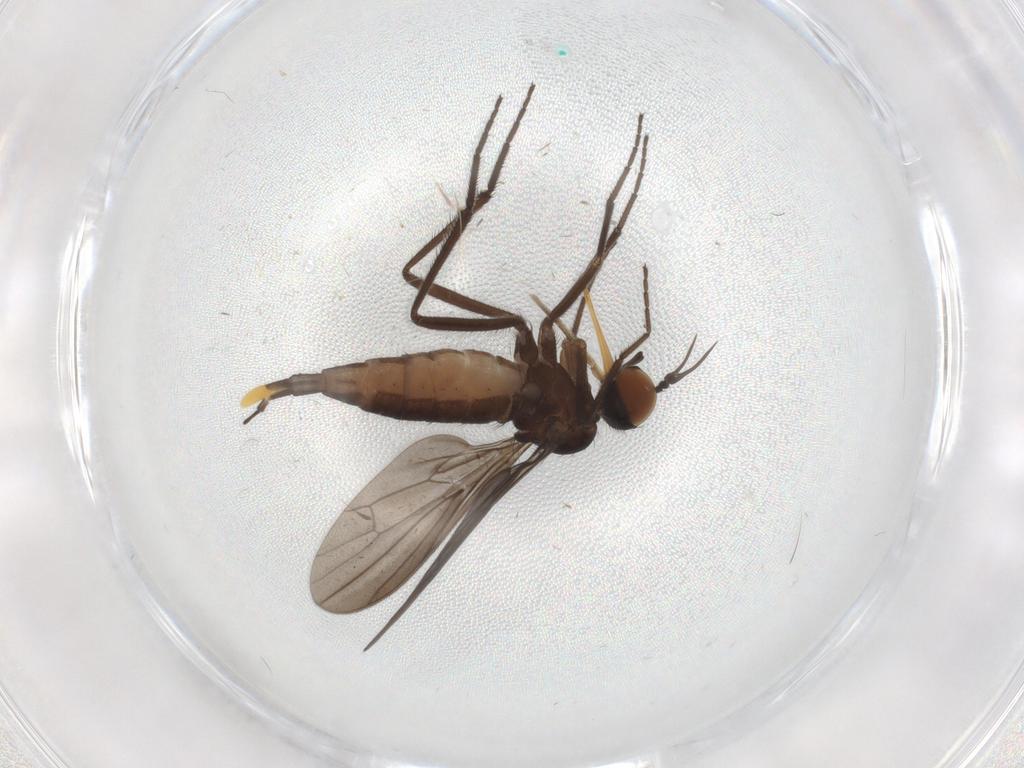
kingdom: Animalia
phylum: Arthropoda
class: Insecta
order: Diptera
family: Empididae
